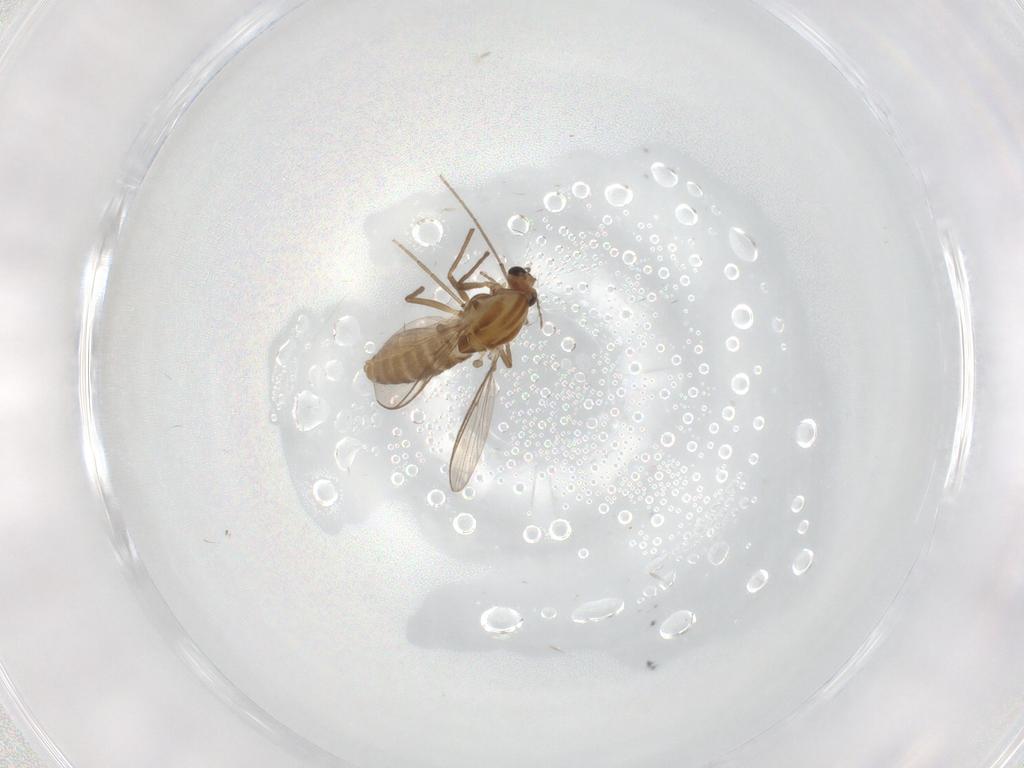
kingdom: Animalia
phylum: Arthropoda
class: Insecta
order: Diptera
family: Chironomidae
